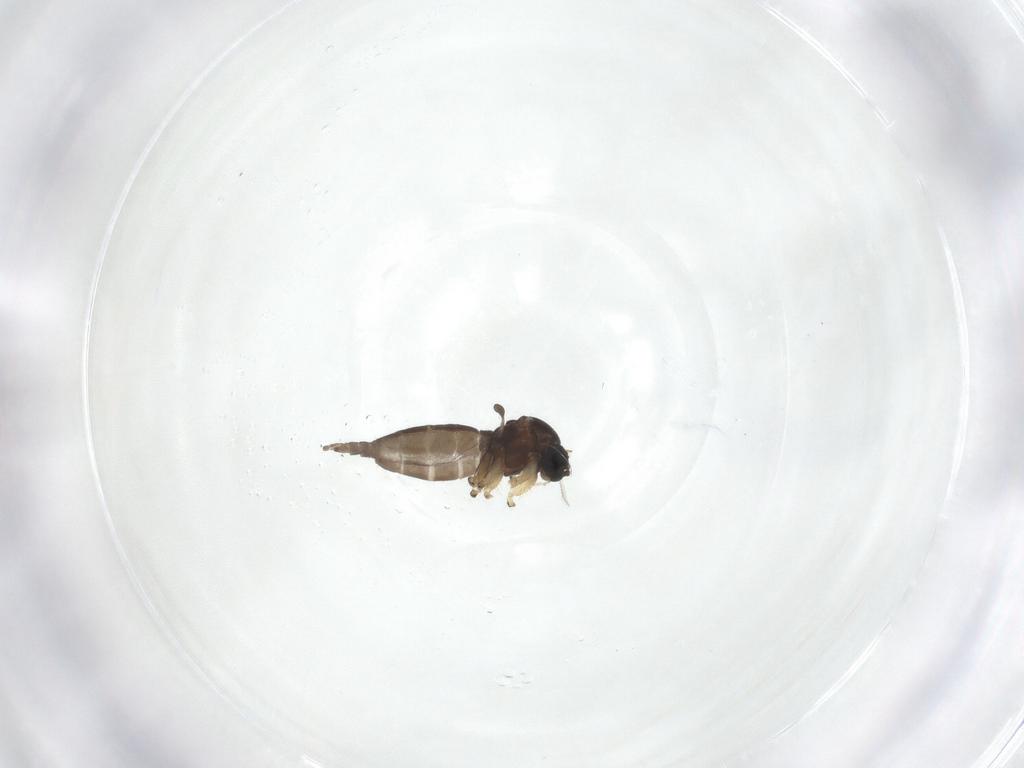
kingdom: Animalia
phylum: Arthropoda
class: Insecta
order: Diptera
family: Sciaridae
